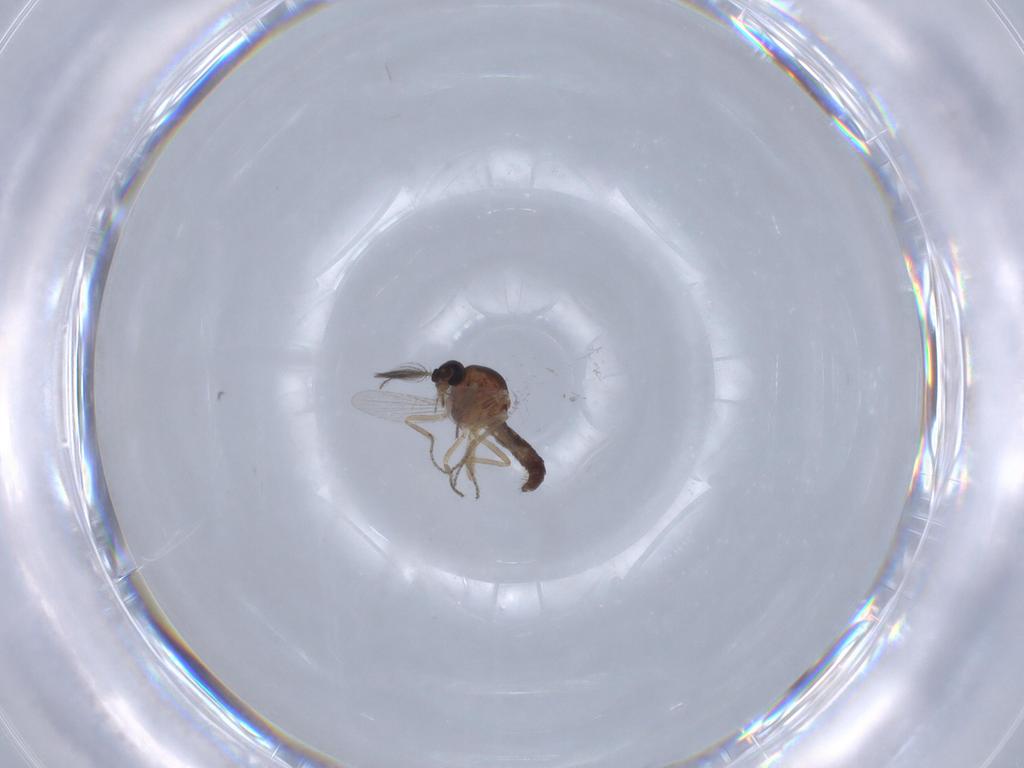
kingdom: Animalia
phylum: Arthropoda
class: Insecta
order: Diptera
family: Ceratopogonidae
